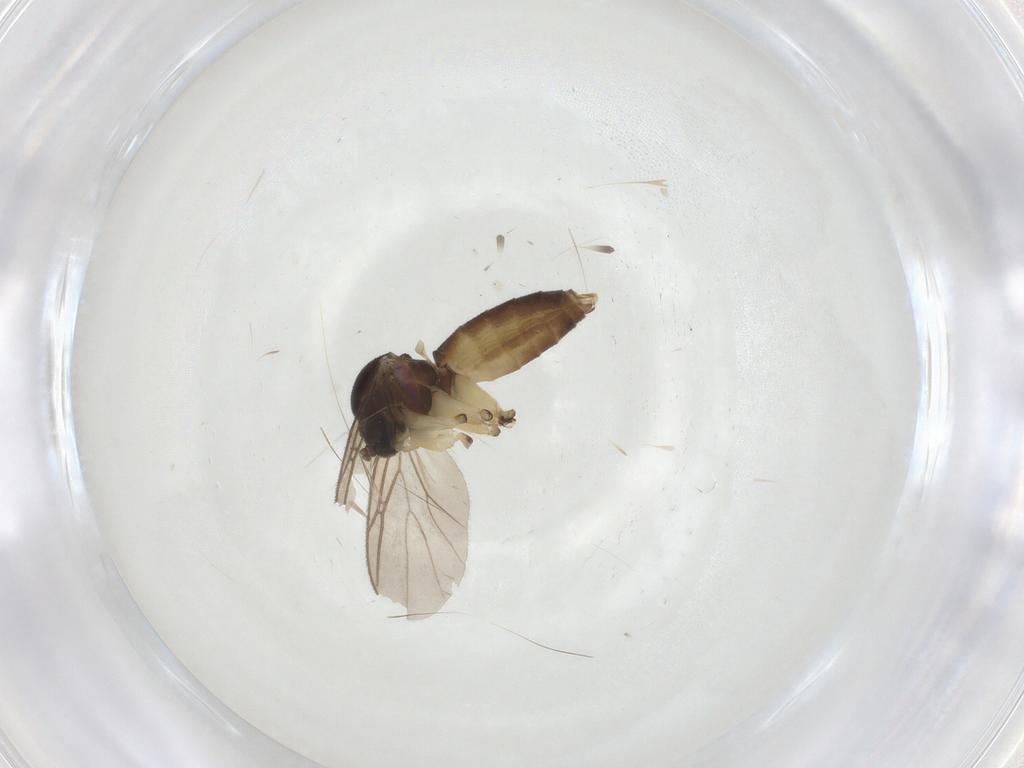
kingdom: Animalia
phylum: Arthropoda
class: Insecta
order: Diptera
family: Mycetophilidae
